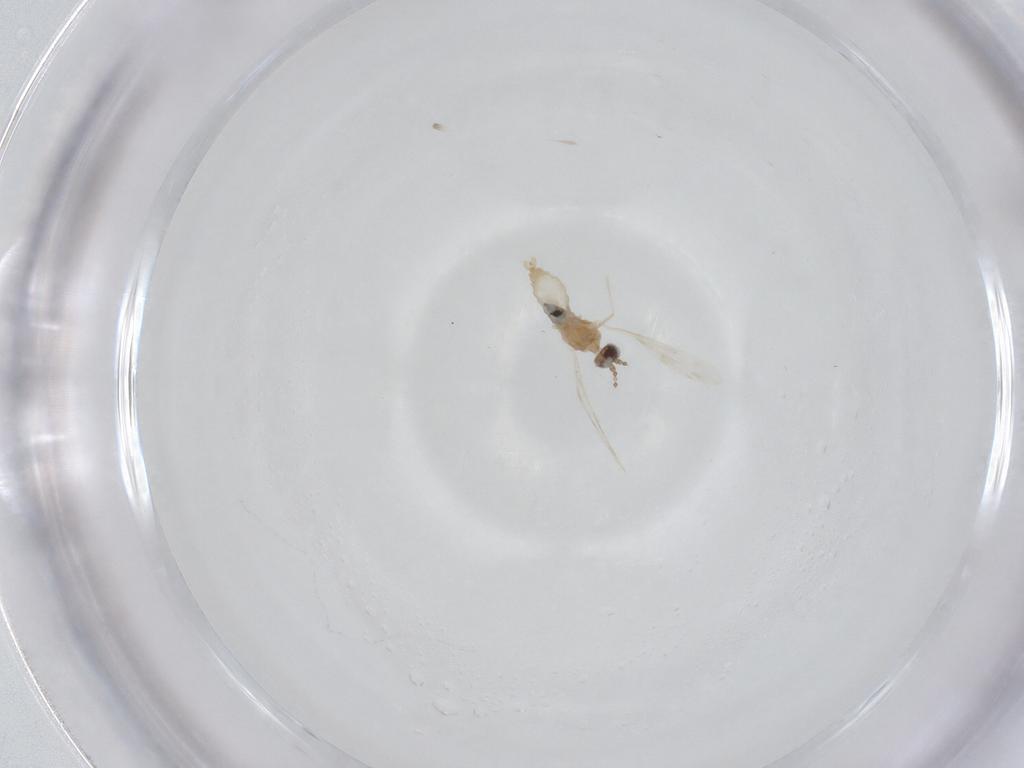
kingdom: Animalia
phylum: Arthropoda
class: Insecta
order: Diptera
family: Cecidomyiidae
